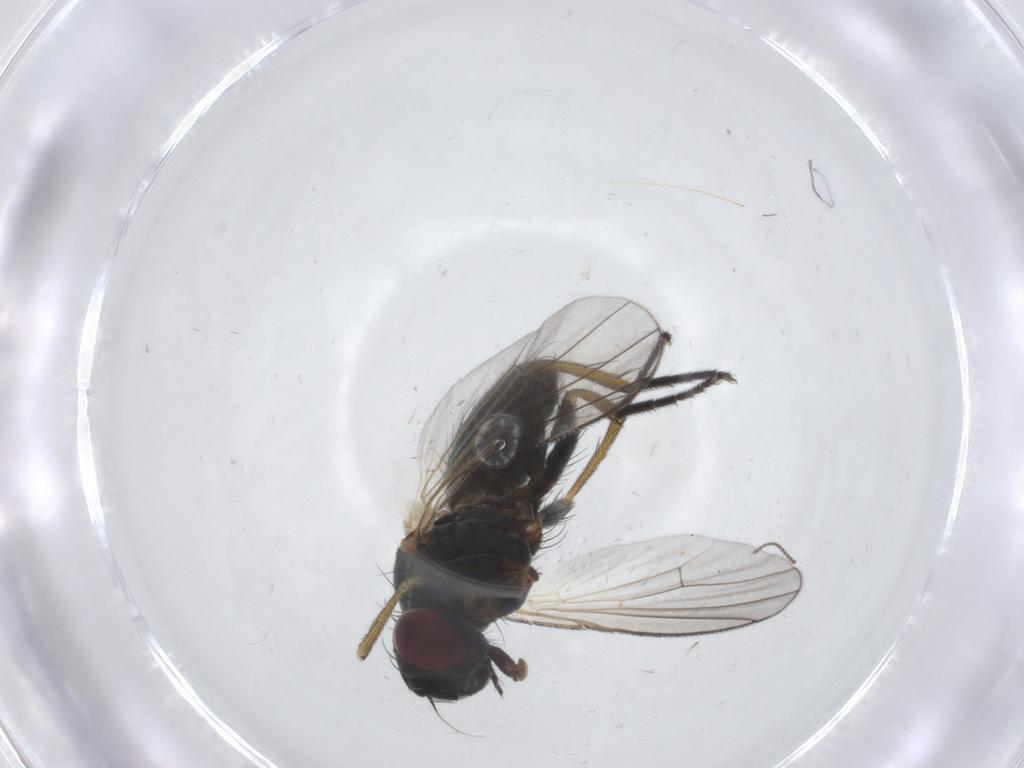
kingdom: Animalia
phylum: Arthropoda
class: Insecta
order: Diptera
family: Muscidae
